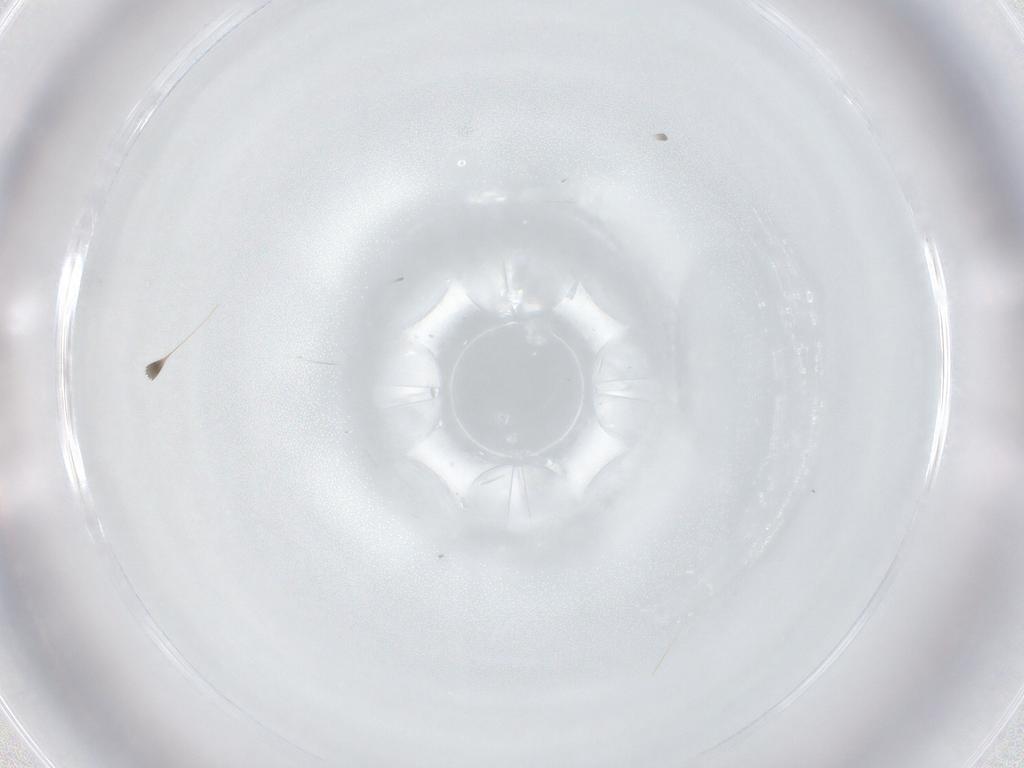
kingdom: Animalia
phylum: Arthropoda
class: Insecta
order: Diptera
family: Cecidomyiidae
